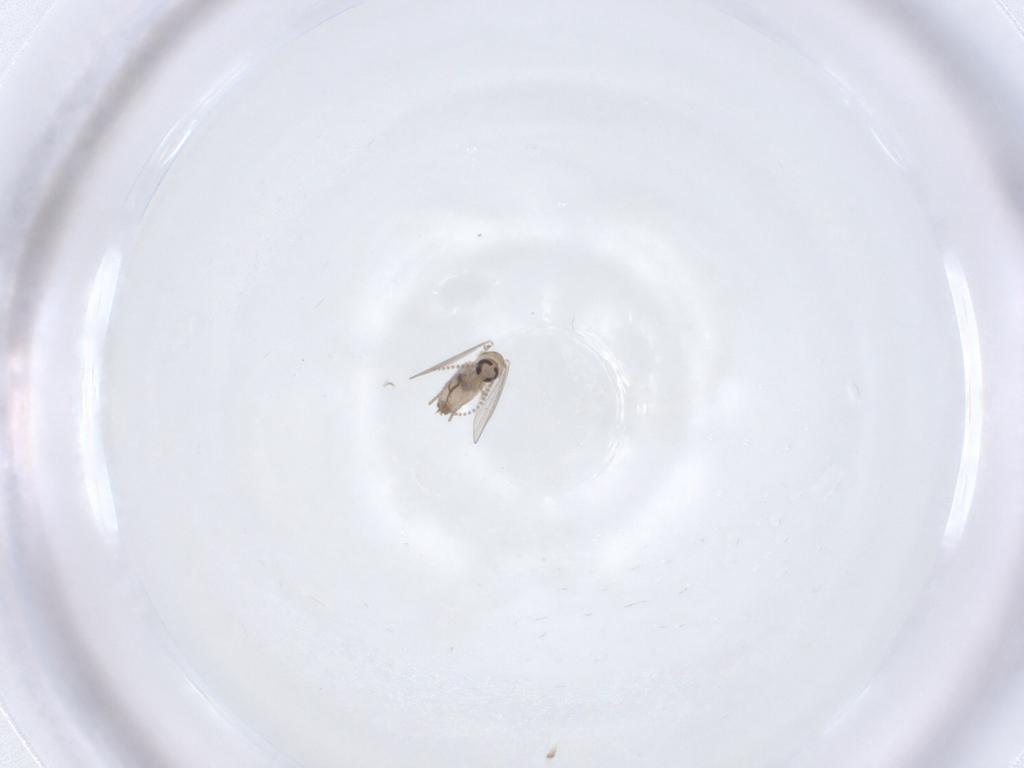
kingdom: Animalia
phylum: Arthropoda
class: Insecta
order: Diptera
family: Psychodidae
